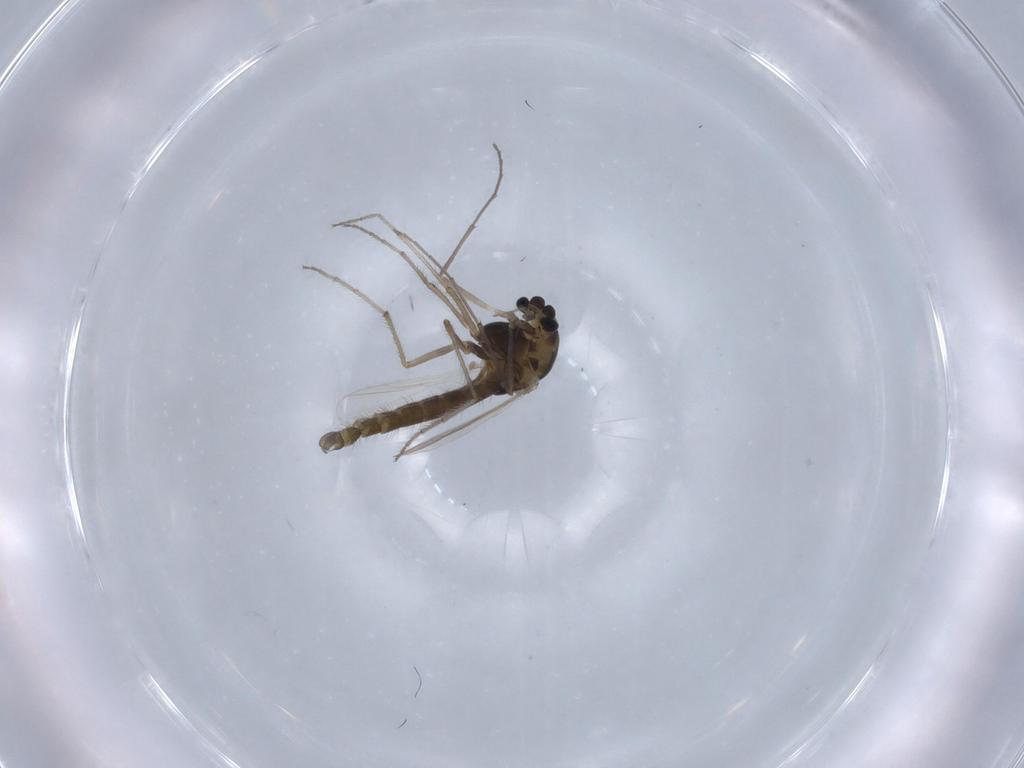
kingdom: Animalia
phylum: Arthropoda
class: Insecta
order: Diptera
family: Chironomidae
